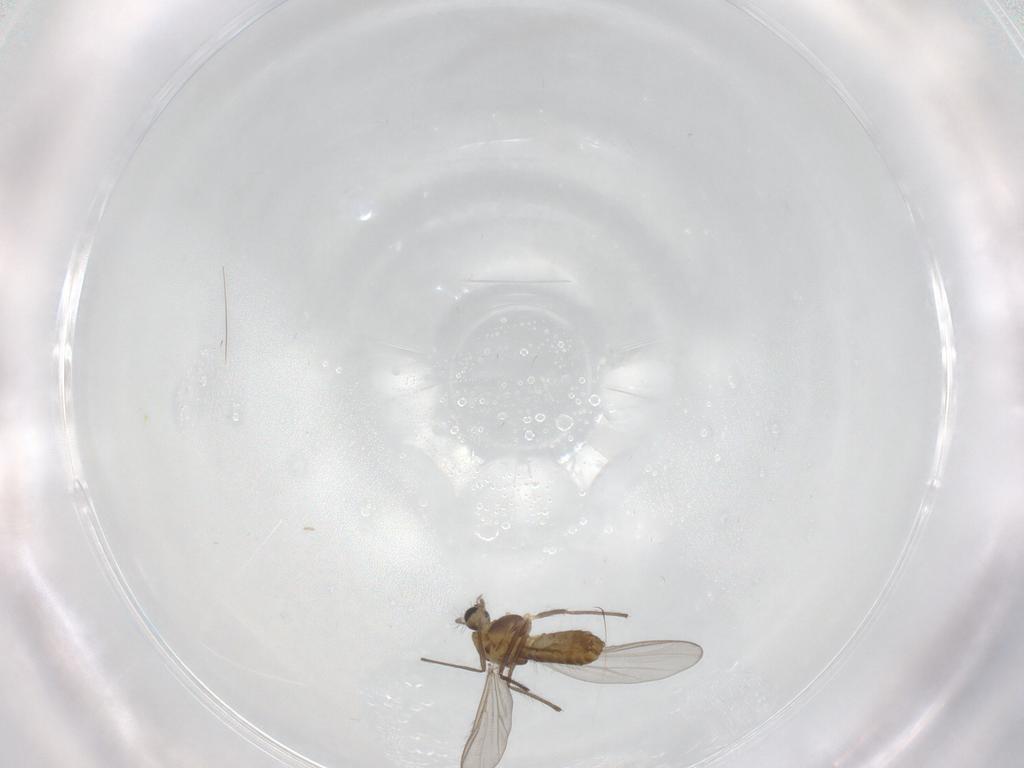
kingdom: Animalia
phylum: Arthropoda
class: Insecta
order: Diptera
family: Chironomidae
